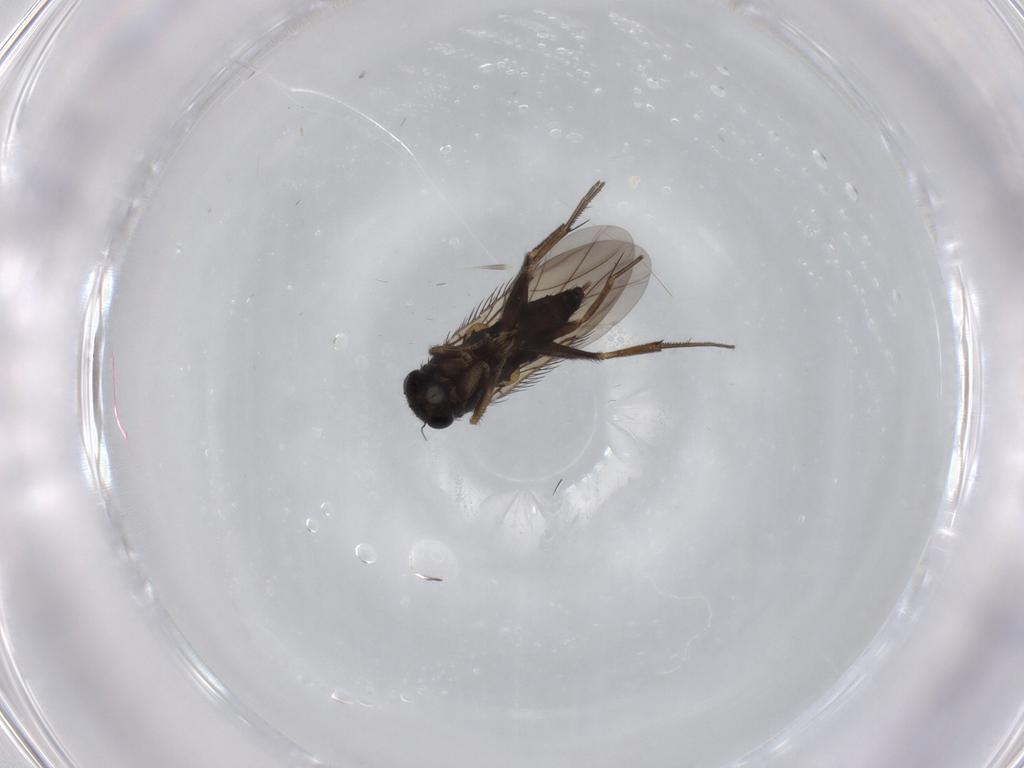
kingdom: Animalia
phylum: Arthropoda
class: Insecta
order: Diptera
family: Phoridae
